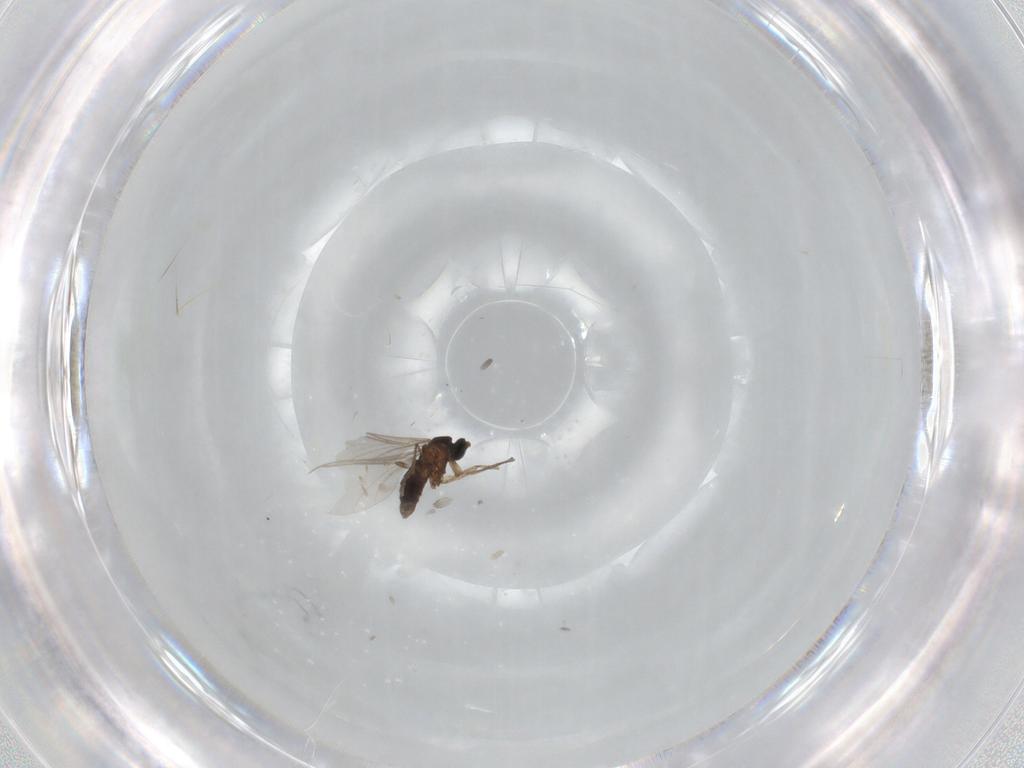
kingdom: Animalia
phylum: Arthropoda
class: Insecta
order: Diptera
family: Sciaridae
